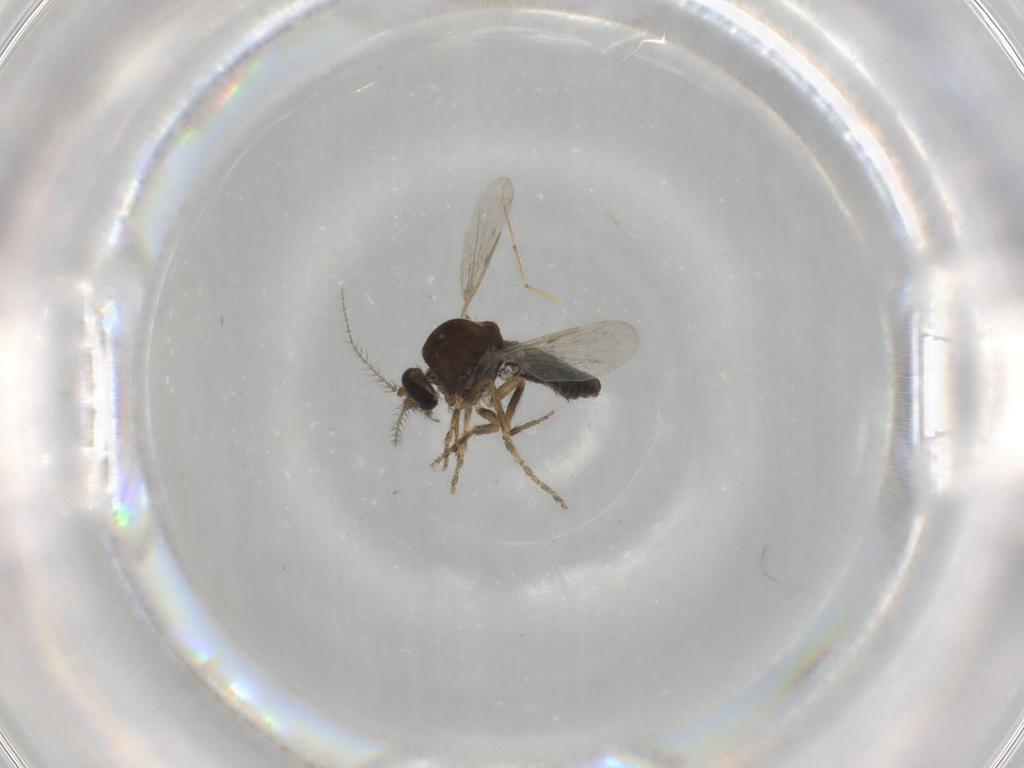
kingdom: Animalia
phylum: Arthropoda
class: Insecta
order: Diptera
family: Ceratopogonidae
